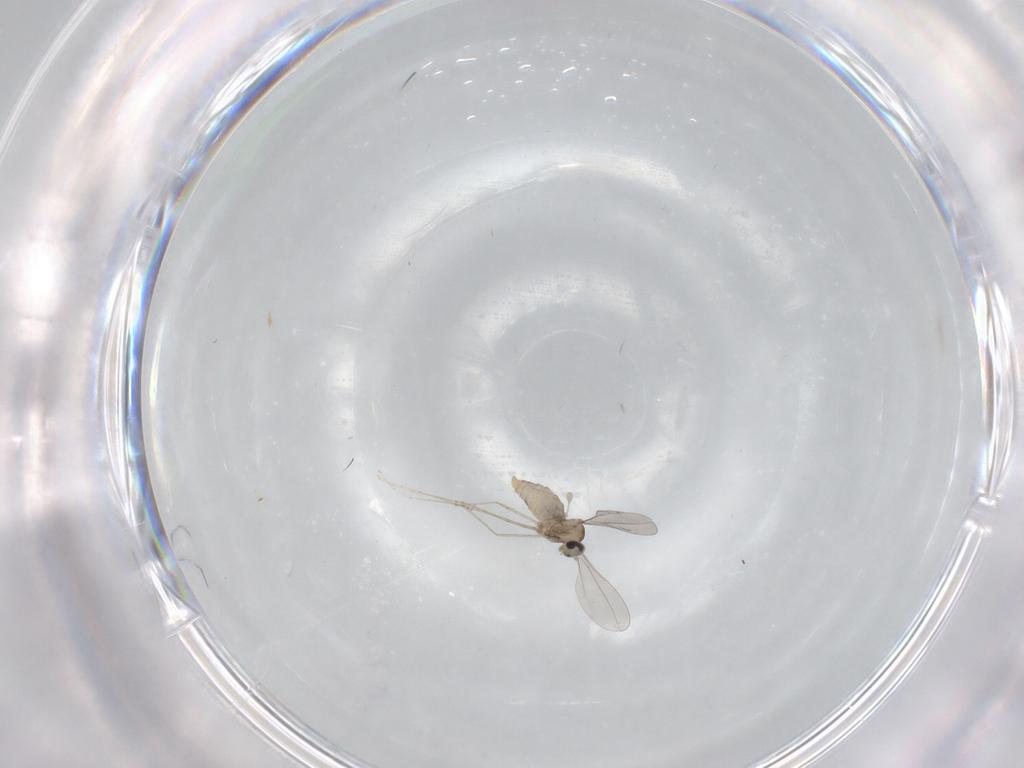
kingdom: Animalia
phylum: Arthropoda
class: Insecta
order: Diptera
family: Cecidomyiidae
